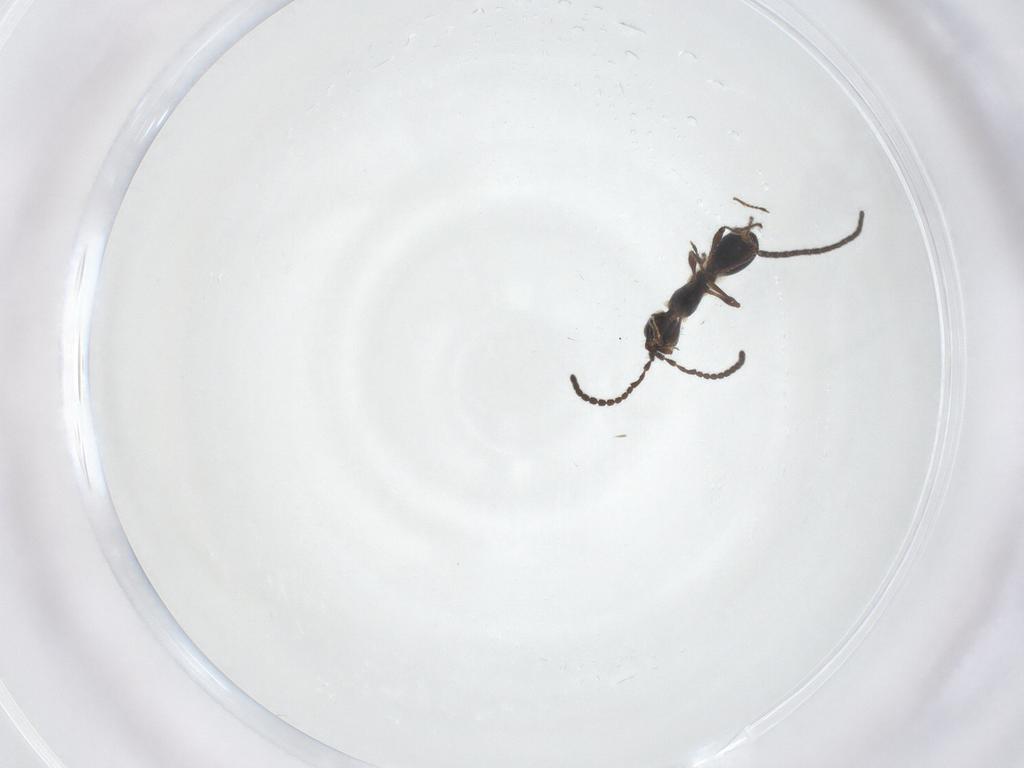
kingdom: Animalia
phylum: Arthropoda
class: Insecta
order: Hymenoptera
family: Diapriidae
